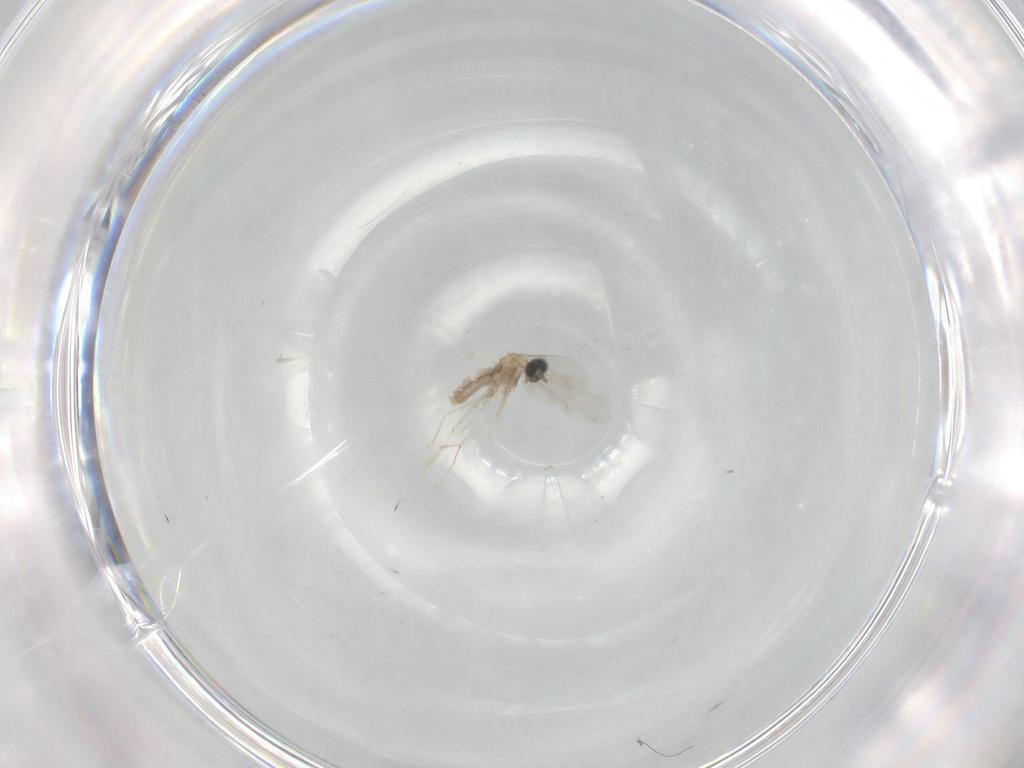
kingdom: Animalia
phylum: Arthropoda
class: Insecta
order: Diptera
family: Cecidomyiidae
